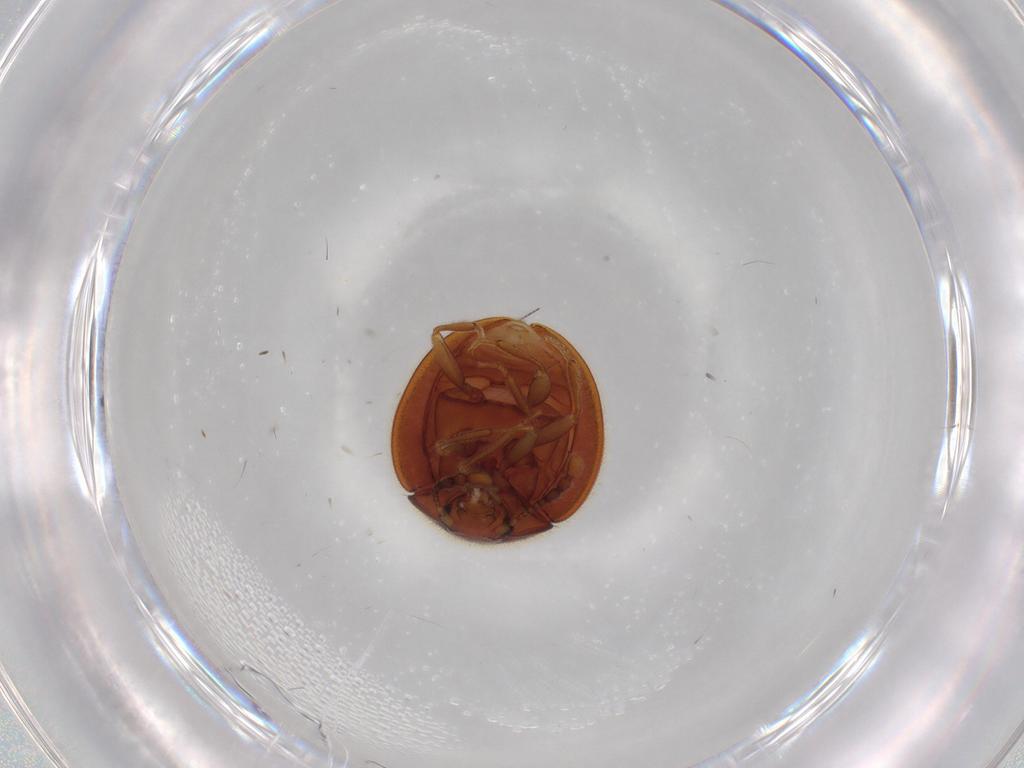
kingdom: Animalia
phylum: Arthropoda
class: Insecta
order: Coleoptera
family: Anamorphidae
